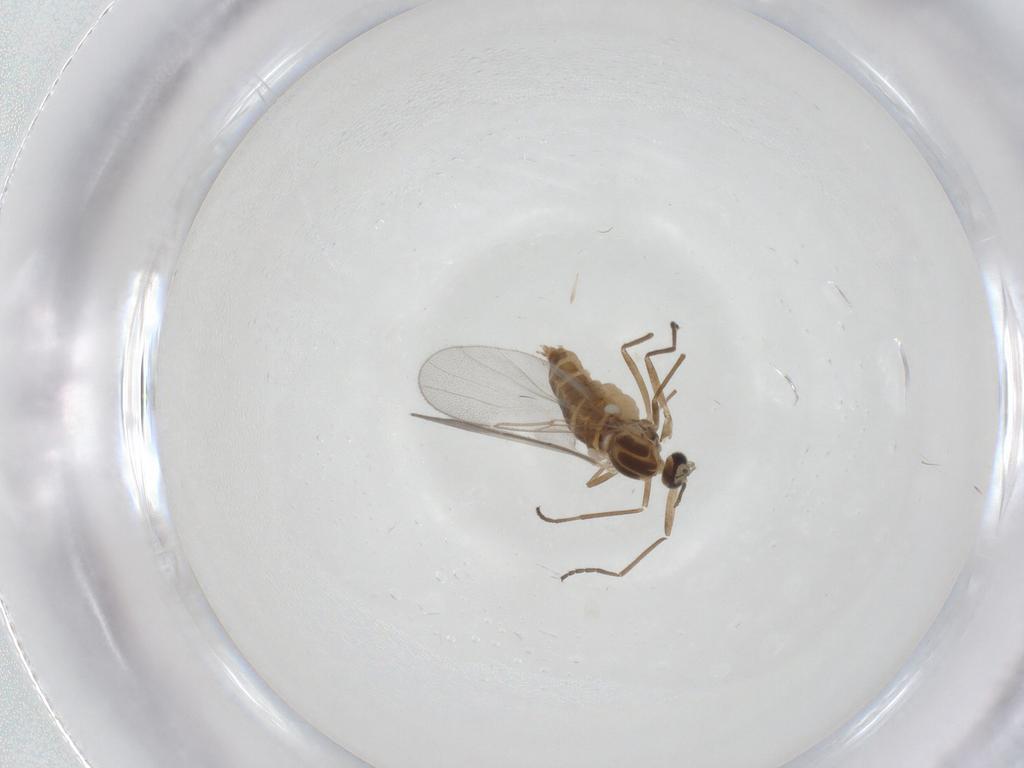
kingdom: Animalia
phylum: Arthropoda
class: Insecta
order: Diptera
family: Cecidomyiidae
